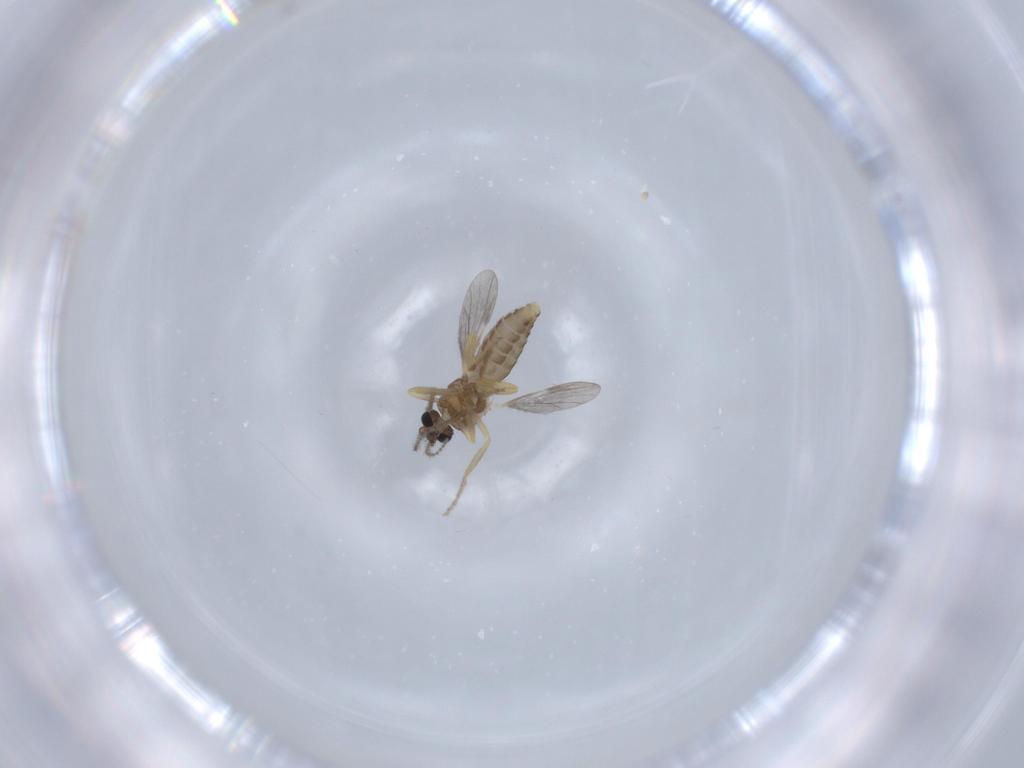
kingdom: Animalia
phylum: Arthropoda
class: Insecta
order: Diptera
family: Ceratopogonidae
